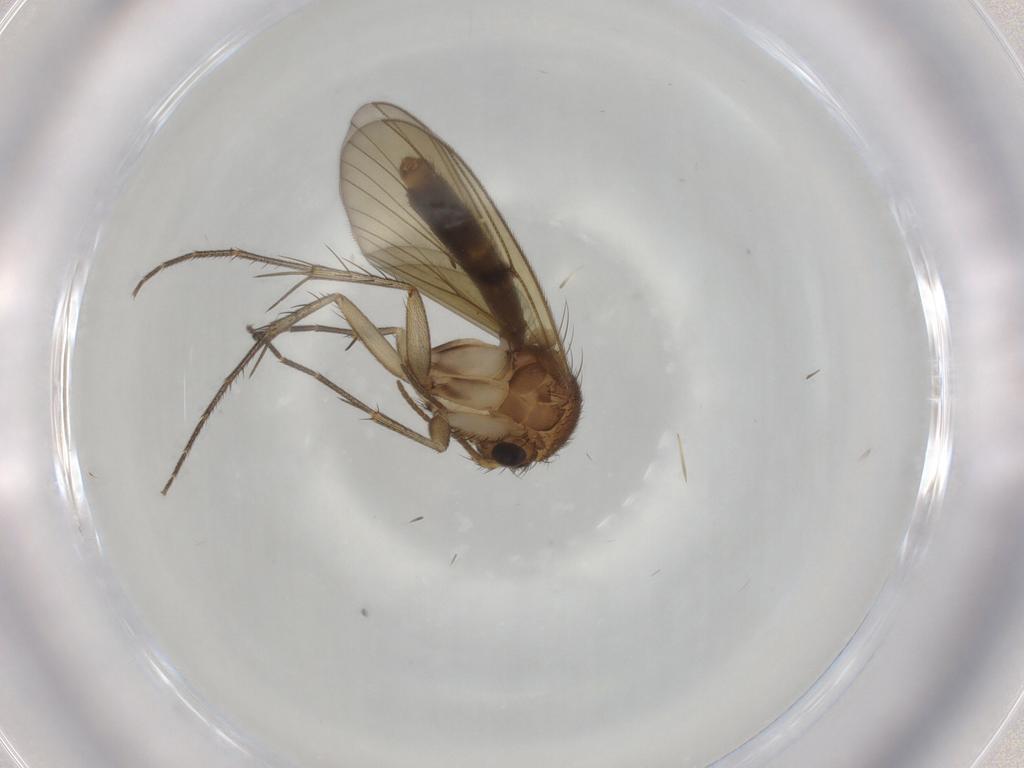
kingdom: Animalia
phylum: Arthropoda
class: Insecta
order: Diptera
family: Mycetophilidae
